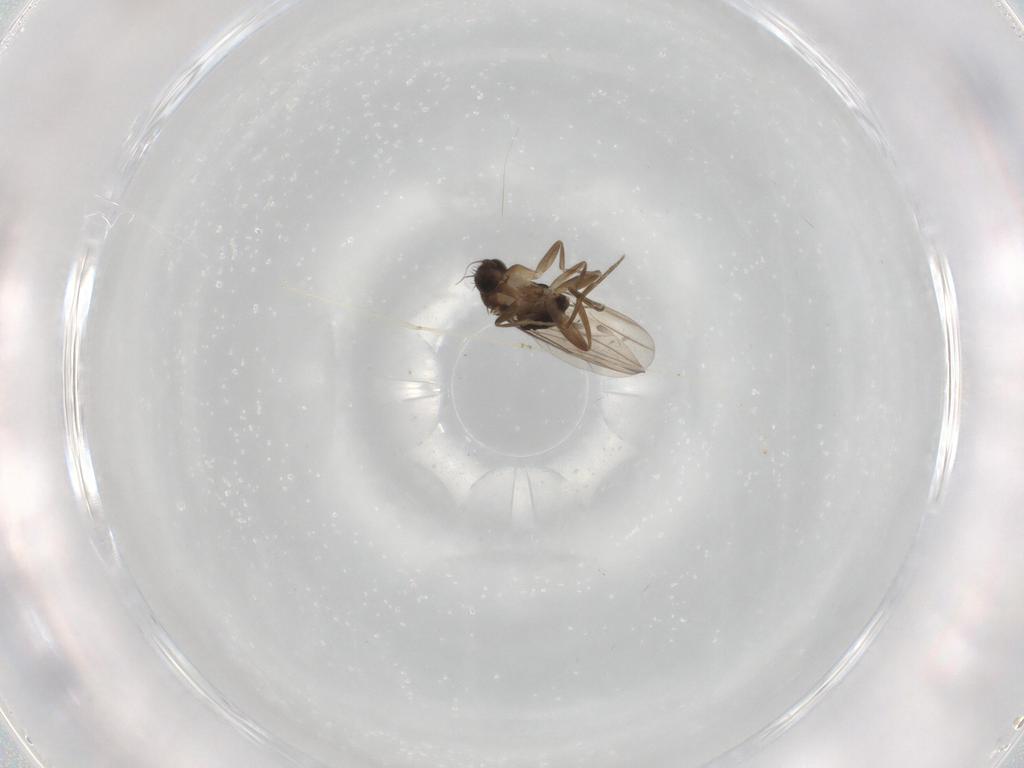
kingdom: Animalia
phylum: Arthropoda
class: Insecta
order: Diptera
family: Phoridae
